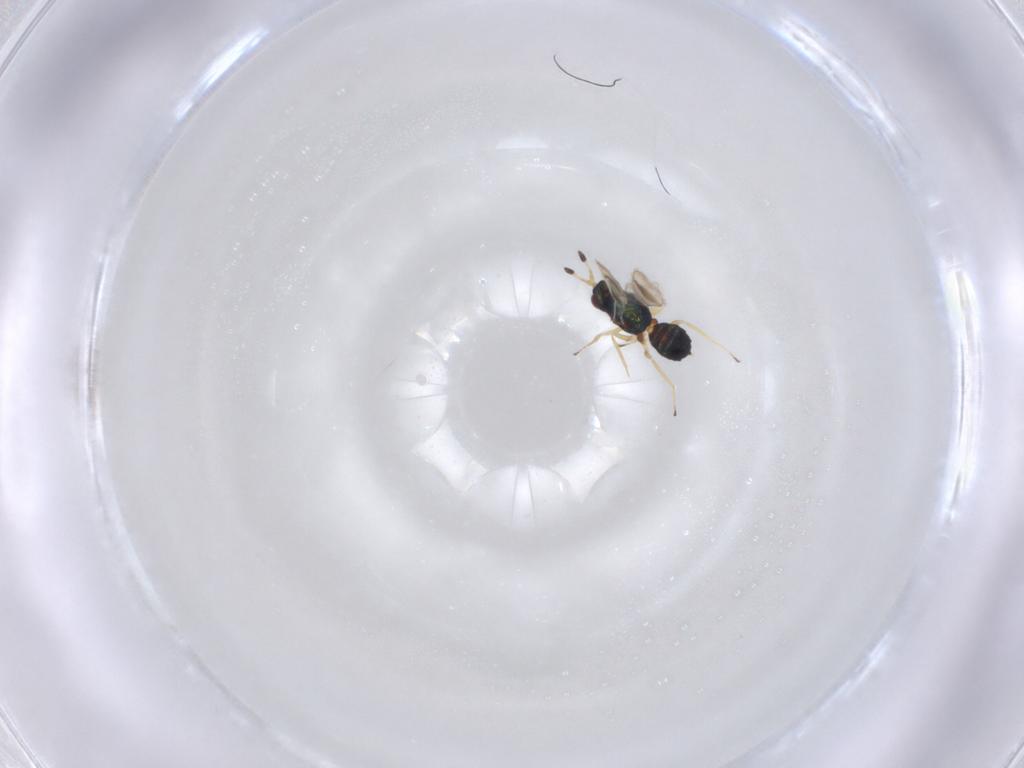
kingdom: Animalia
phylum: Arthropoda
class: Insecta
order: Hymenoptera
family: Tetracampidae
